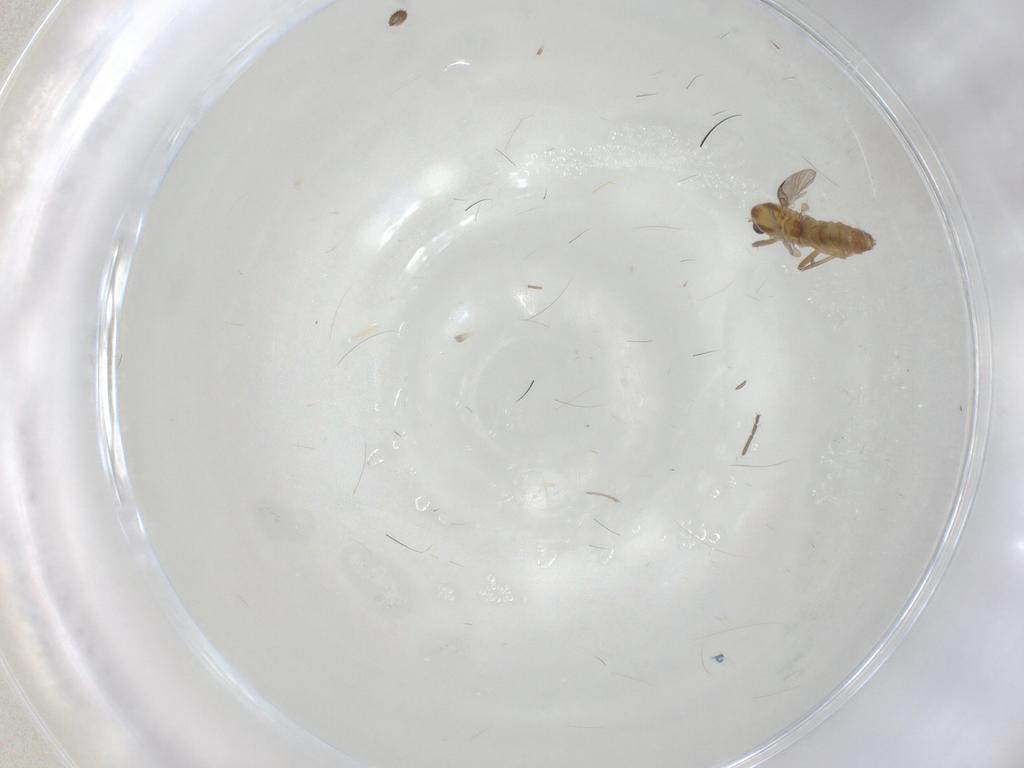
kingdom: Animalia
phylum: Arthropoda
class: Insecta
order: Diptera
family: Chironomidae
